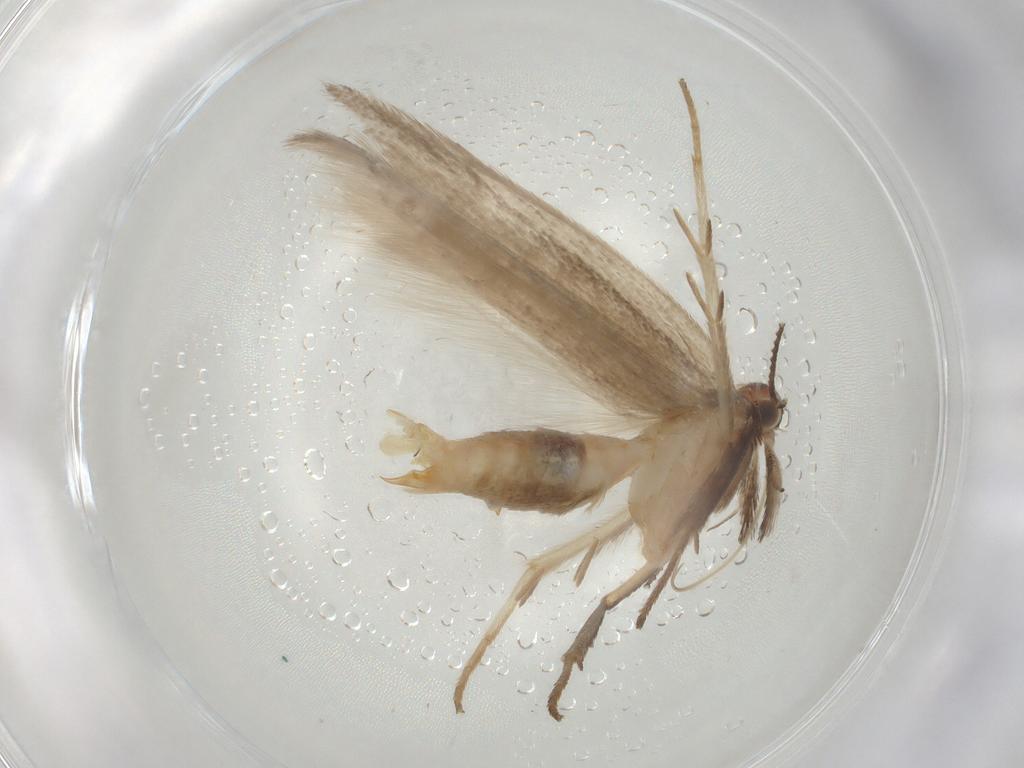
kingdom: Animalia
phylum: Arthropoda
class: Insecta
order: Lepidoptera
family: Gelechiidae
